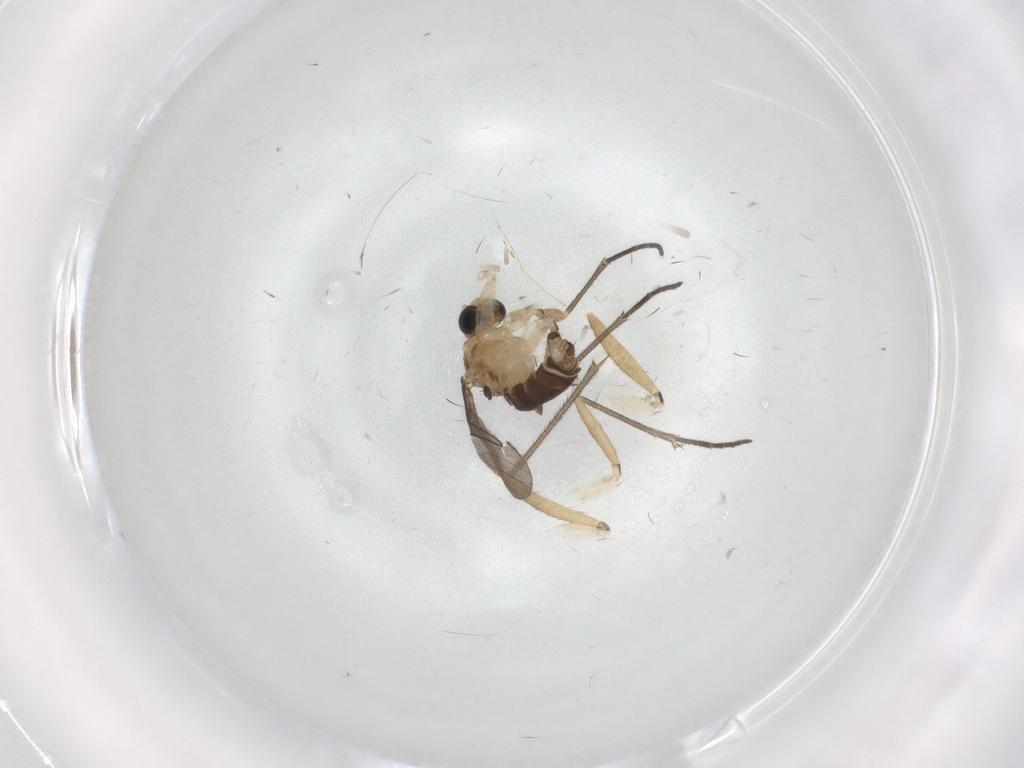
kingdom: Animalia
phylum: Arthropoda
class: Insecta
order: Diptera
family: Sciaridae
